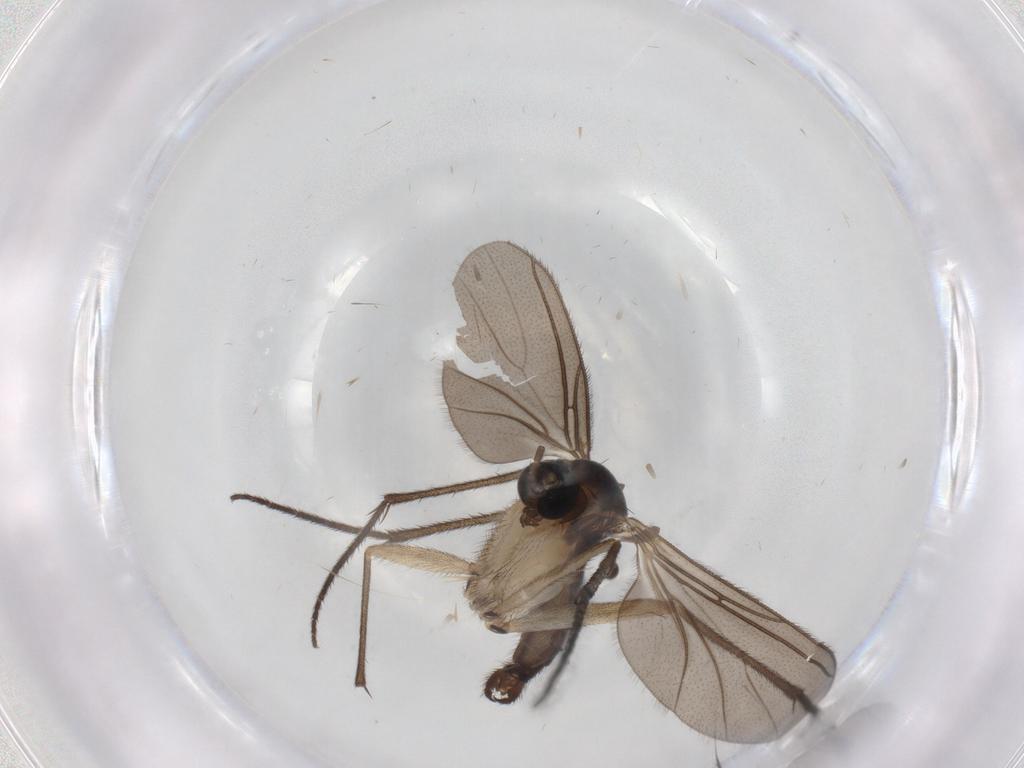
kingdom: Animalia
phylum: Arthropoda
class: Insecta
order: Diptera
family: Sciaridae
